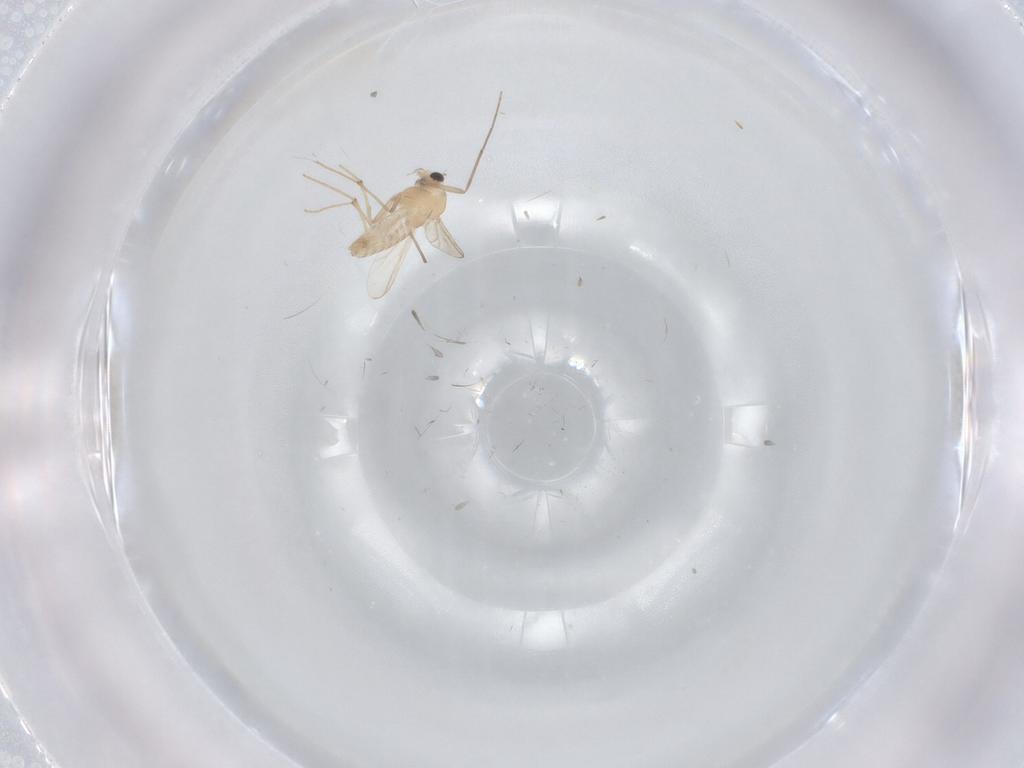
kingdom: Animalia
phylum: Arthropoda
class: Insecta
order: Diptera
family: Chironomidae
